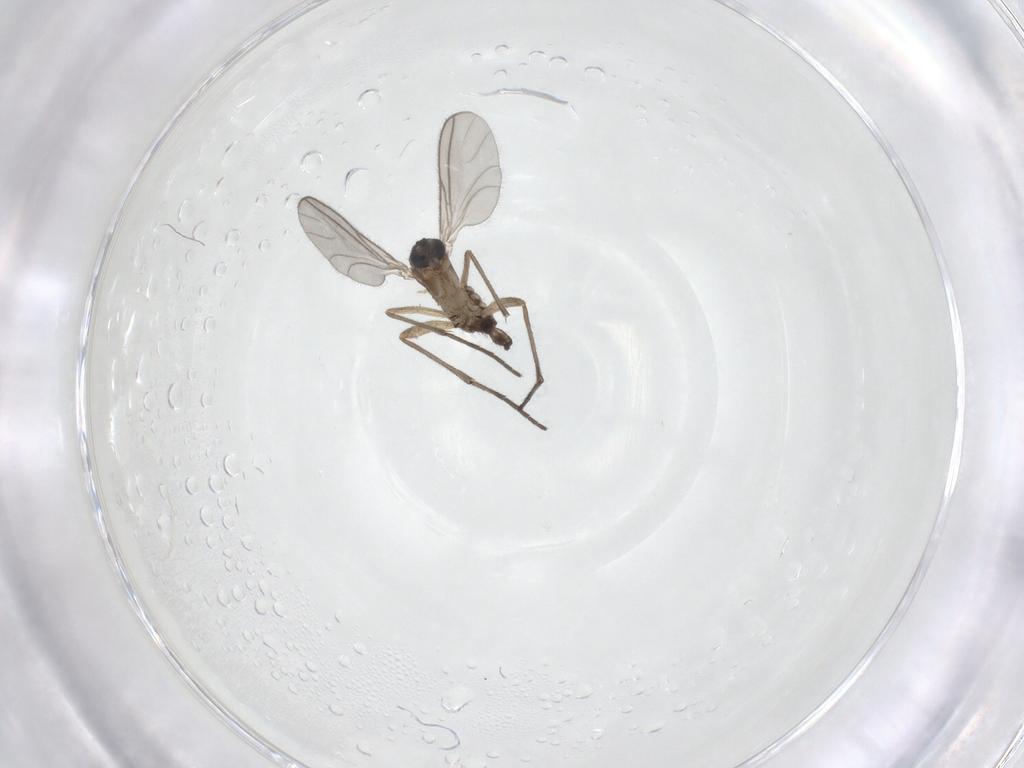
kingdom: Animalia
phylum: Arthropoda
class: Insecta
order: Diptera
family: Sciaridae
